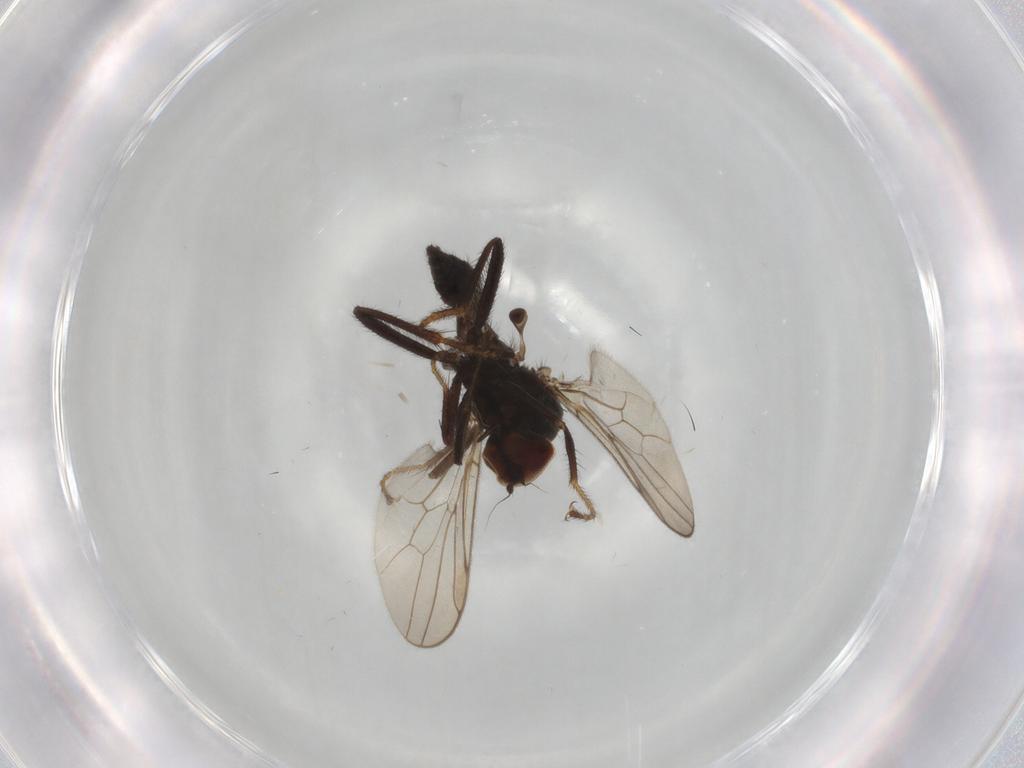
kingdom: Animalia
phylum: Arthropoda
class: Insecta
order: Diptera
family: Hybotidae
